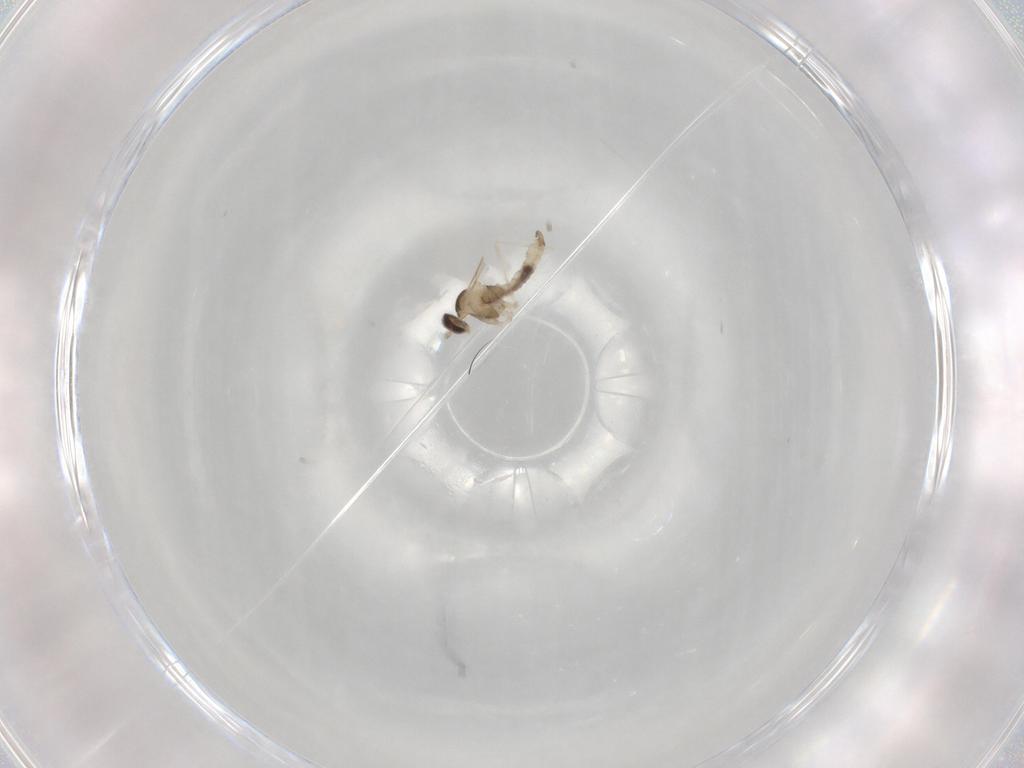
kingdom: Animalia
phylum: Arthropoda
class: Insecta
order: Diptera
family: Cecidomyiidae
